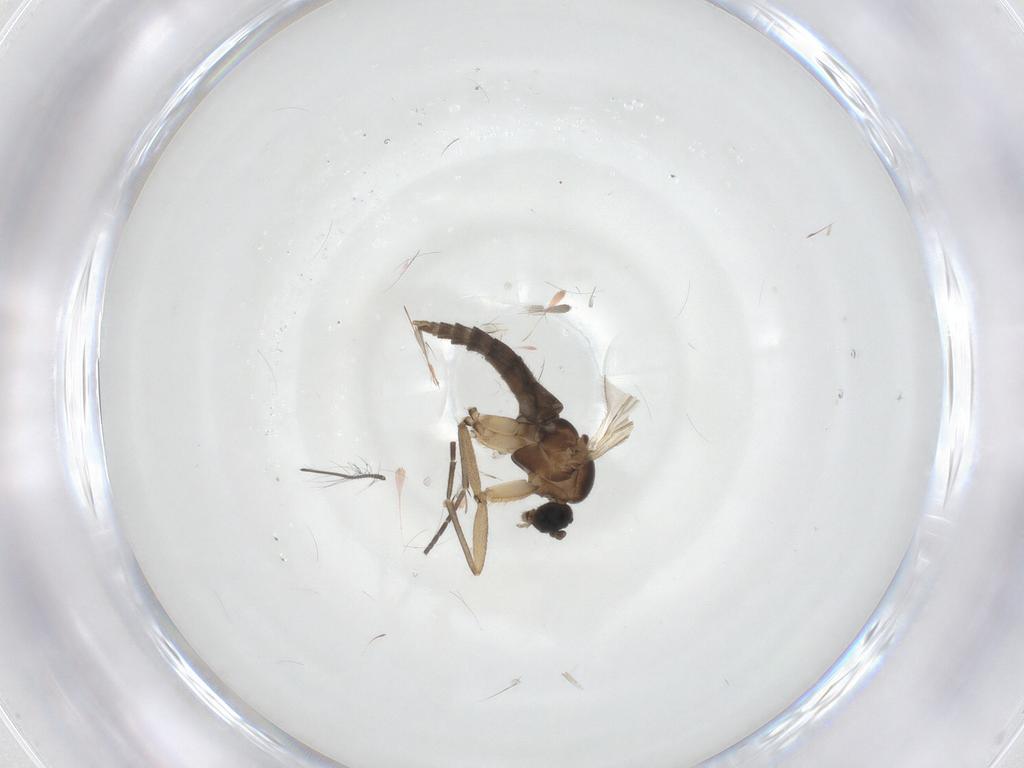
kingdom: Animalia
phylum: Arthropoda
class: Insecta
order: Diptera
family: Sciaridae
